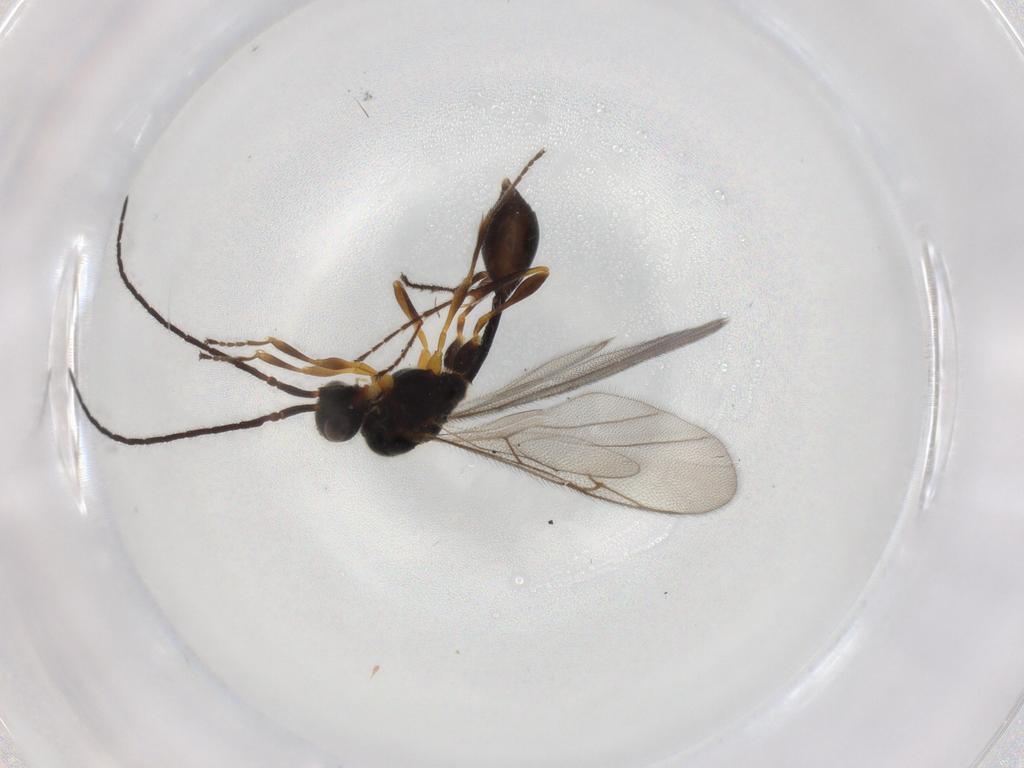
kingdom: Animalia
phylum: Arthropoda
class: Insecta
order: Hymenoptera
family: Diapriidae
